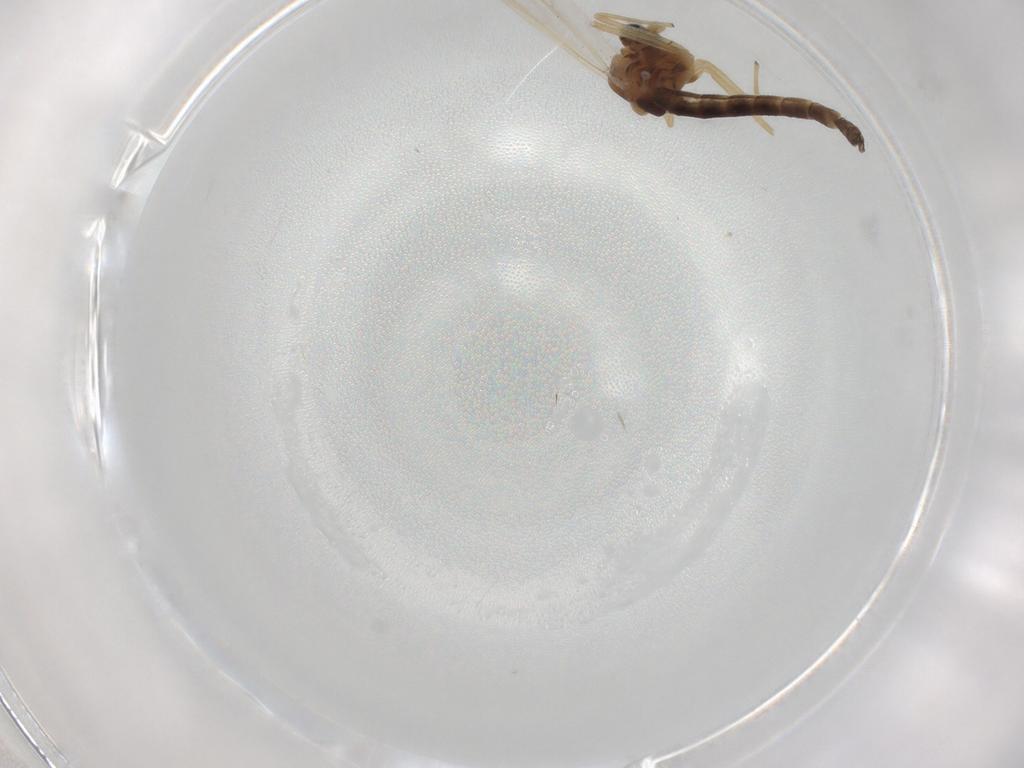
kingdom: Animalia
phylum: Arthropoda
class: Insecta
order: Diptera
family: Chironomidae
